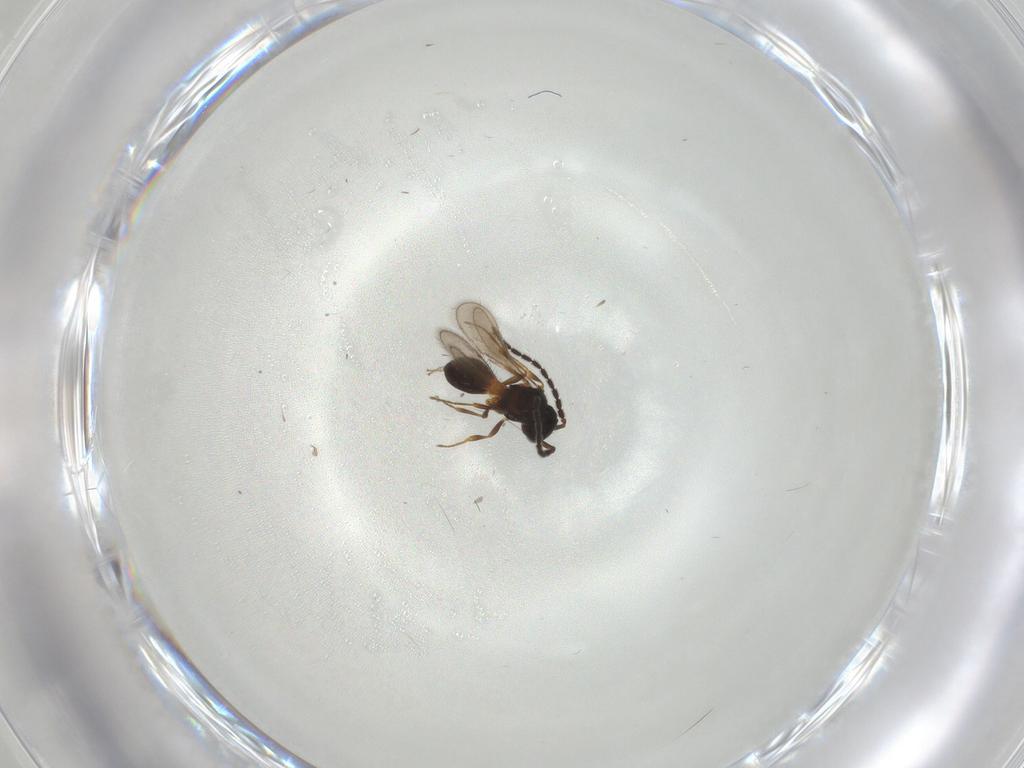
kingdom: Animalia
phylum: Arthropoda
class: Insecta
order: Hymenoptera
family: Scelionidae
